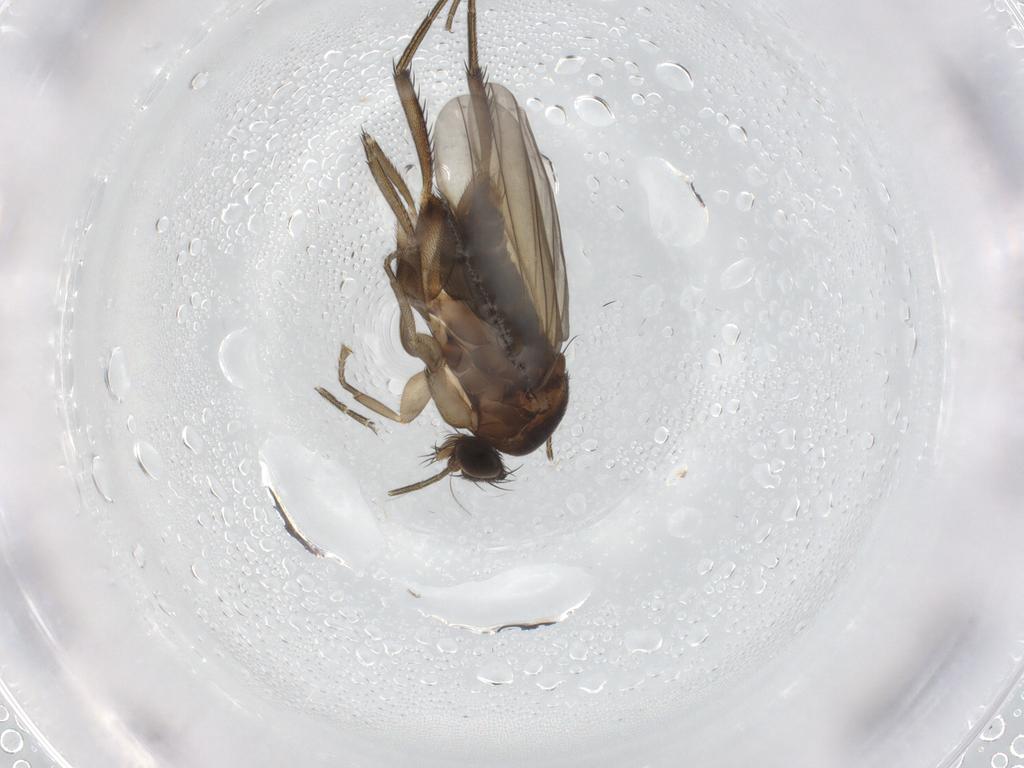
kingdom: Animalia
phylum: Arthropoda
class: Insecta
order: Diptera
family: Phoridae
